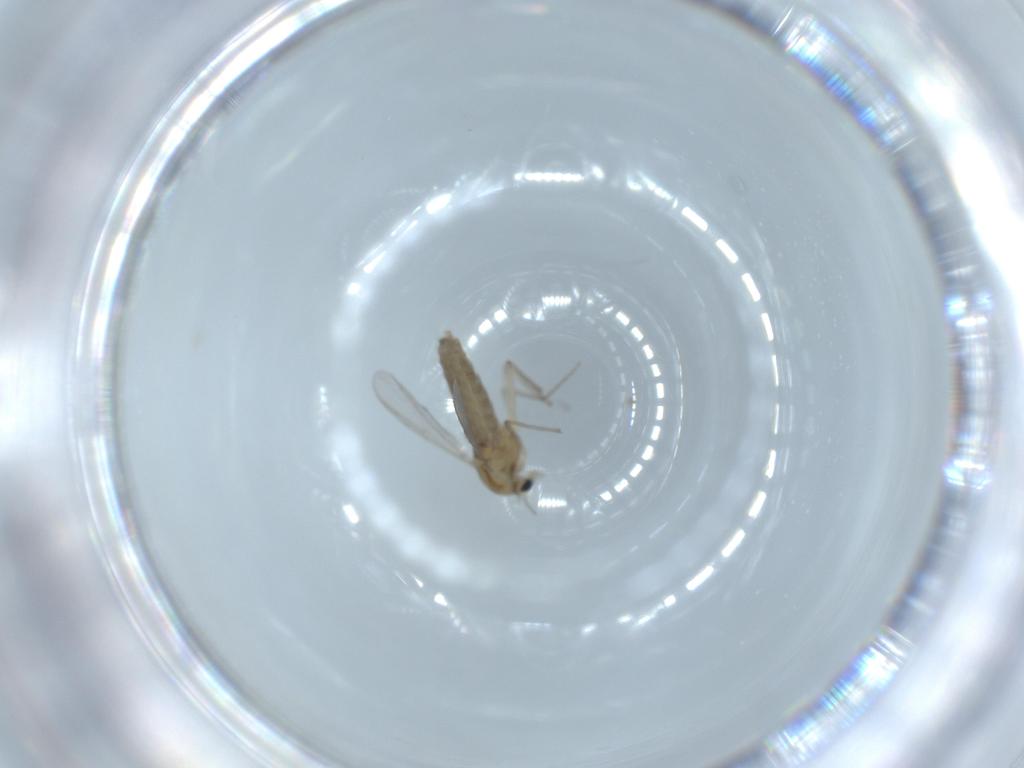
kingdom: Animalia
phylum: Arthropoda
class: Insecta
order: Diptera
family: Chironomidae
